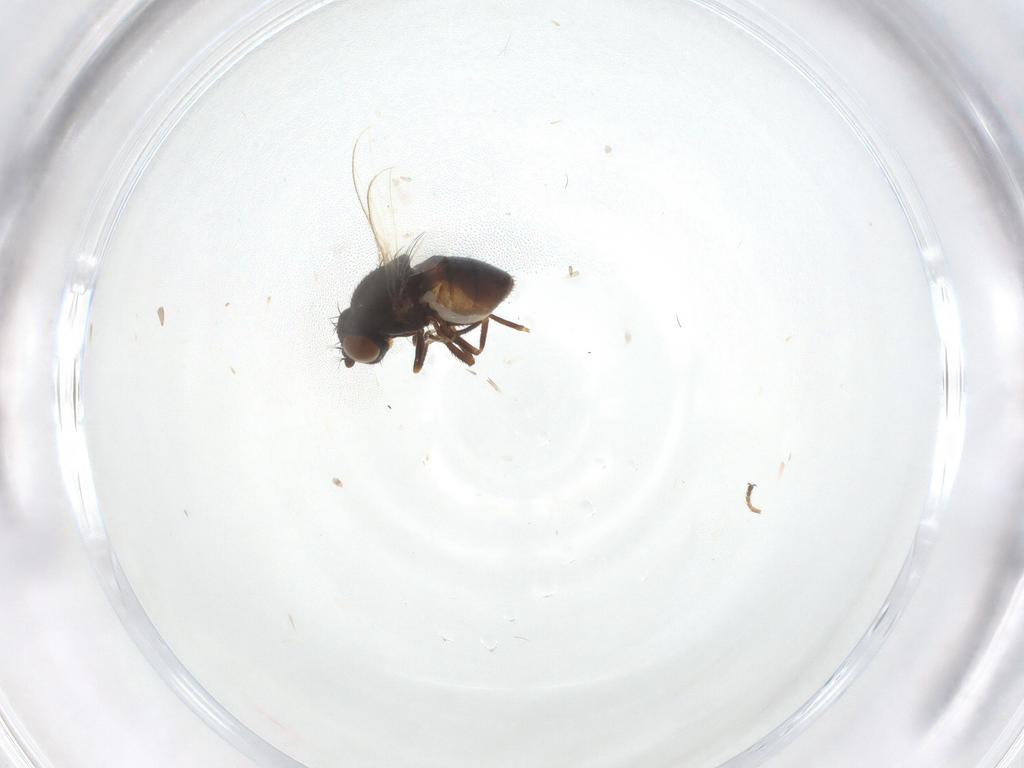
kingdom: Animalia
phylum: Arthropoda
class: Insecta
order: Diptera
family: Ephydridae
